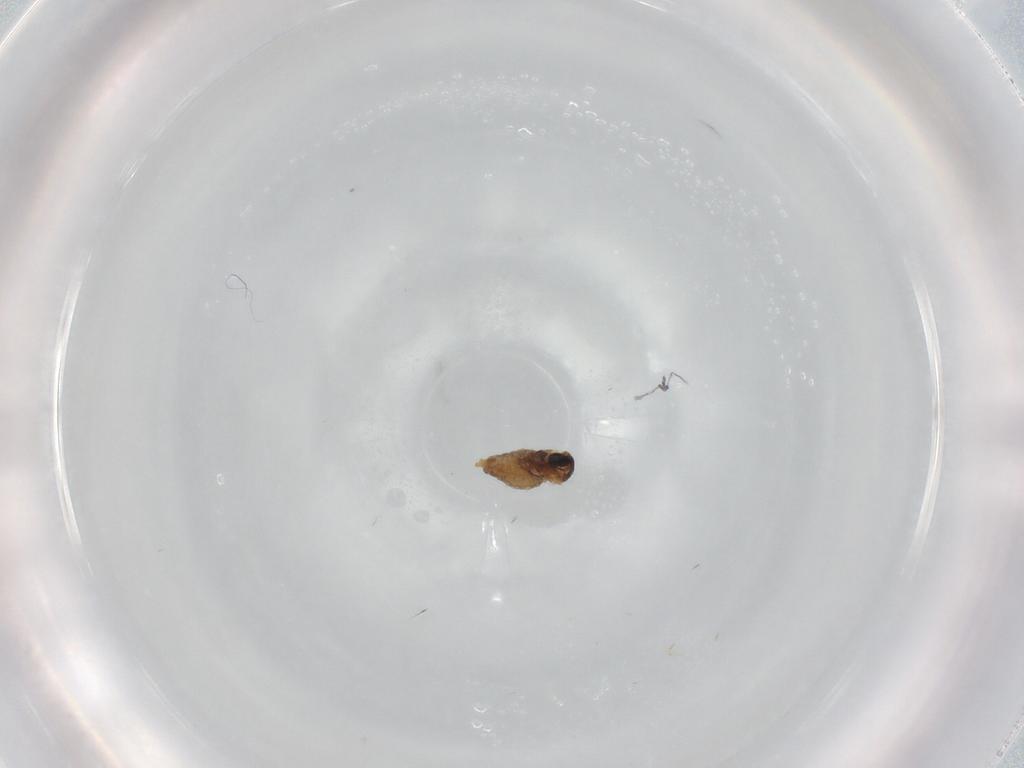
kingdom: Animalia
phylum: Arthropoda
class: Insecta
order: Diptera
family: Cecidomyiidae
